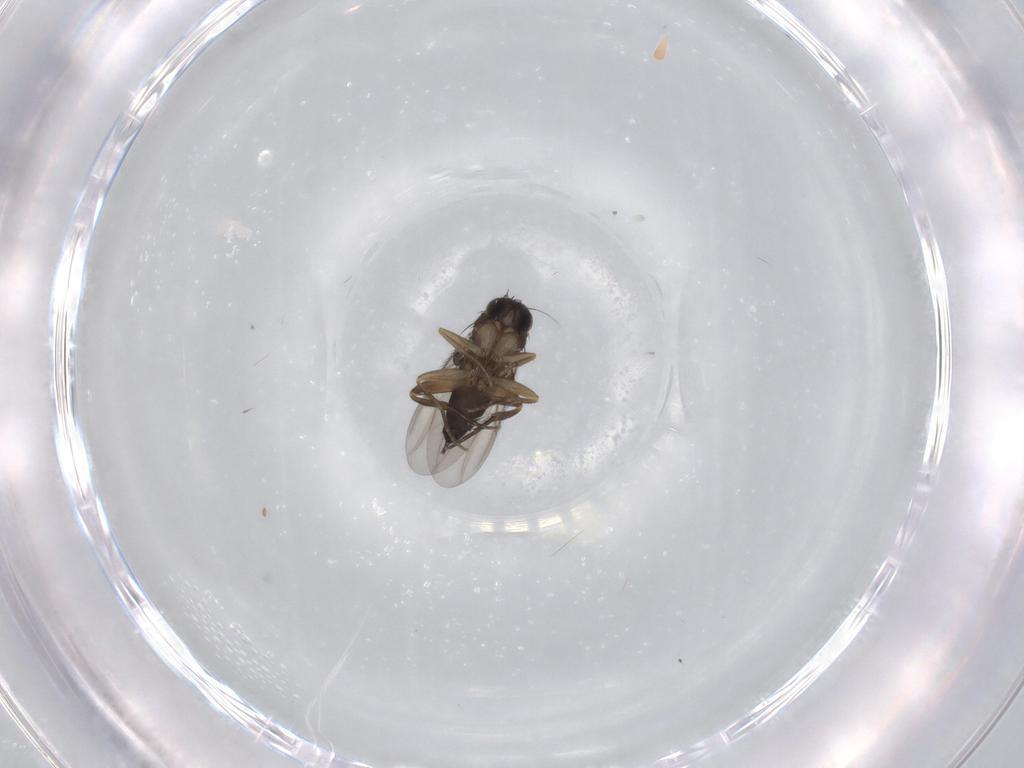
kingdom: Animalia
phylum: Arthropoda
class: Insecta
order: Diptera
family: Phoridae
